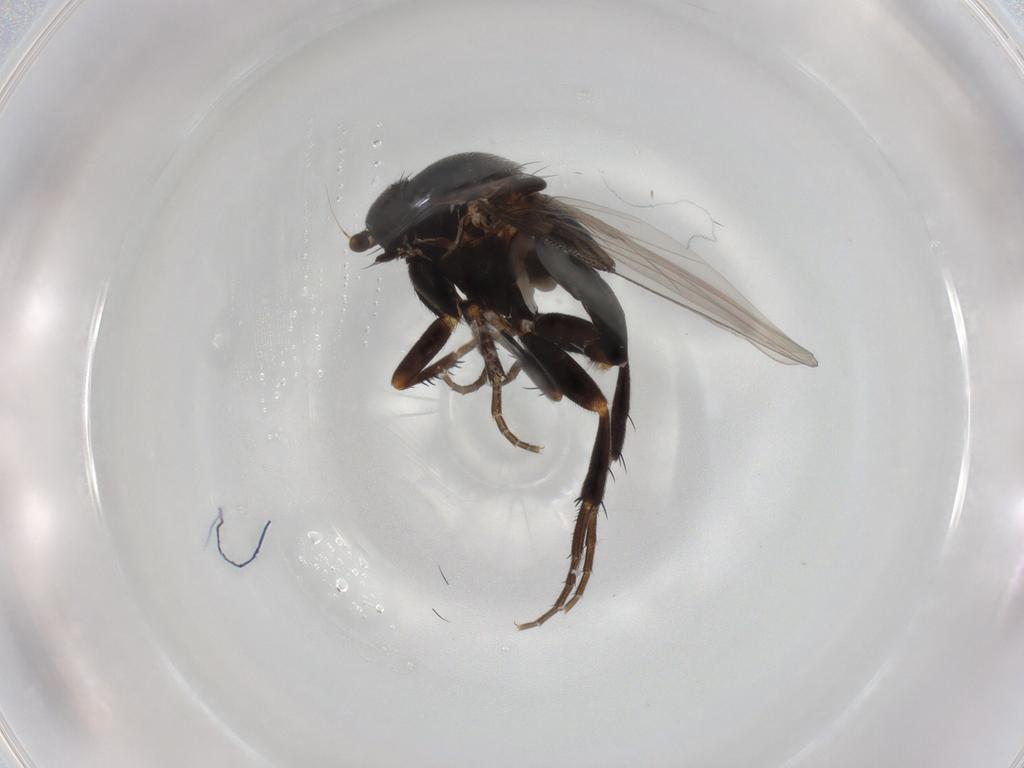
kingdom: Animalia
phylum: Arthropoda
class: Insecta
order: Diptera
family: Phoridae
